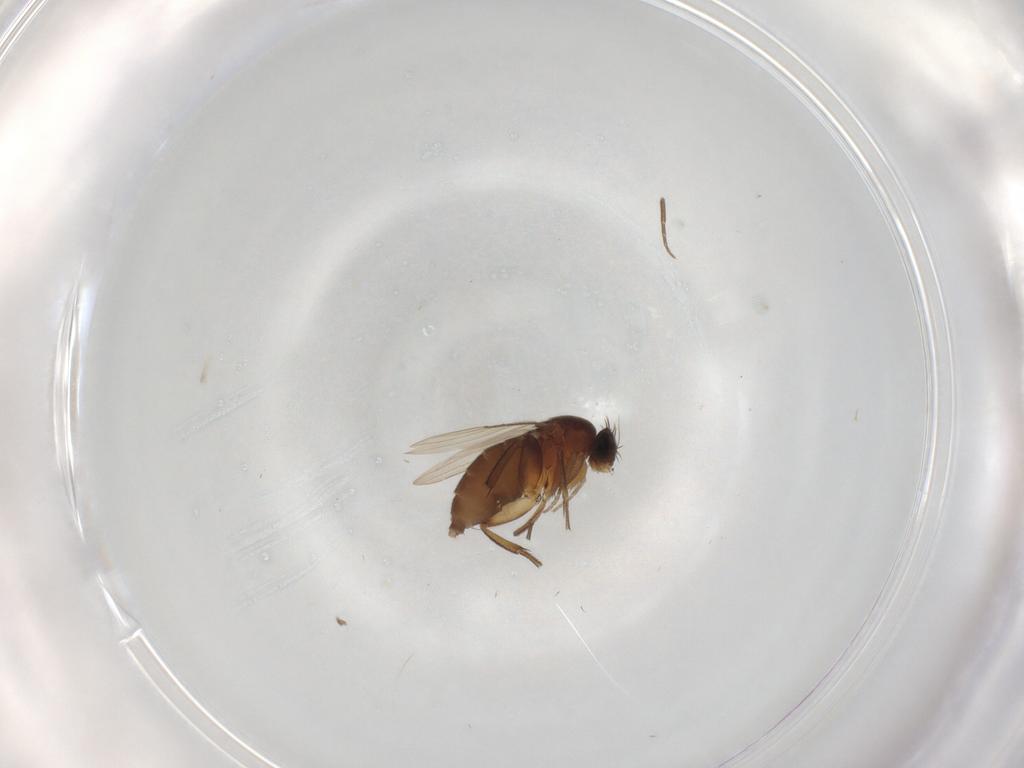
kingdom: Animalia
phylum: Arthropoda
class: Insecta
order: Diptera
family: Phoridae
